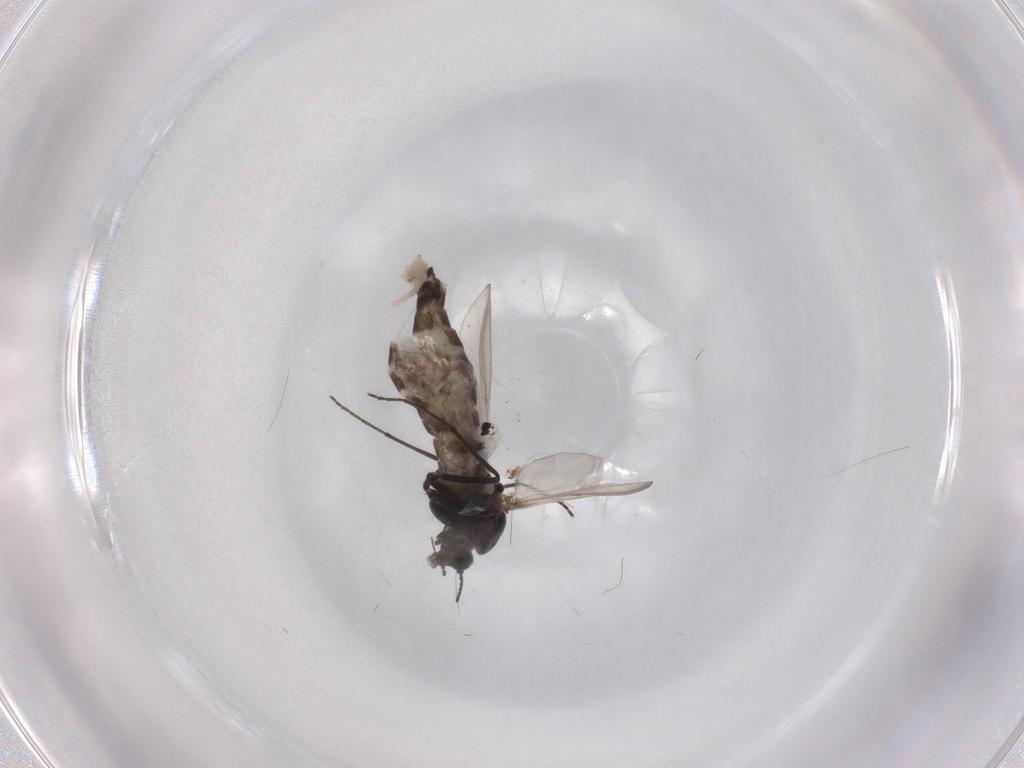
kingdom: Animalia
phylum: Arthropoda
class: Insecta
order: Diptera
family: Chironomidae
